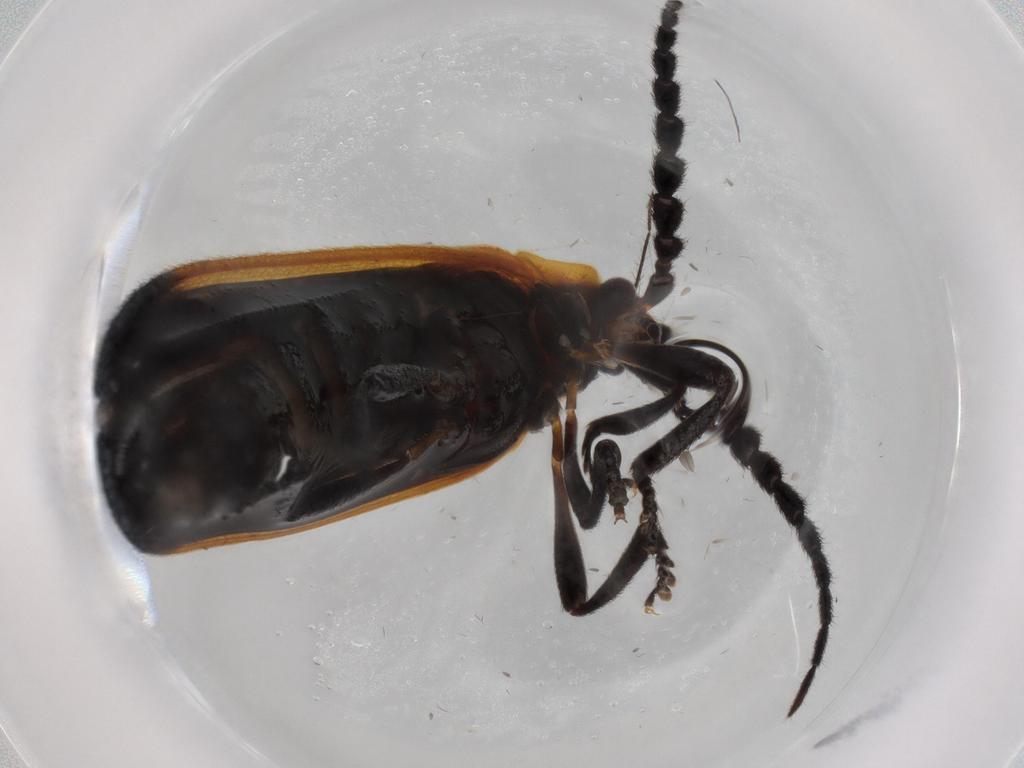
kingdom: Animalia
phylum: Arthropoda
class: Insecta
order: Coleoptera
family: Lycidae
